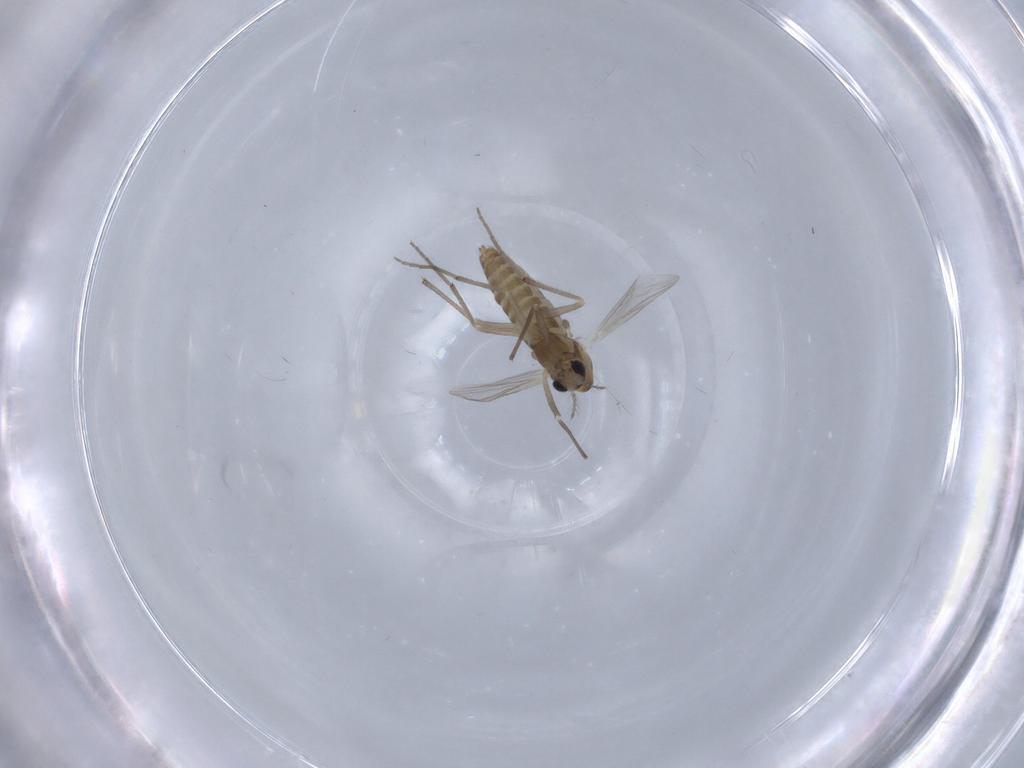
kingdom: Animalia
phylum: Arthropoda
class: Insecta
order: Diptera
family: Chironomidae
